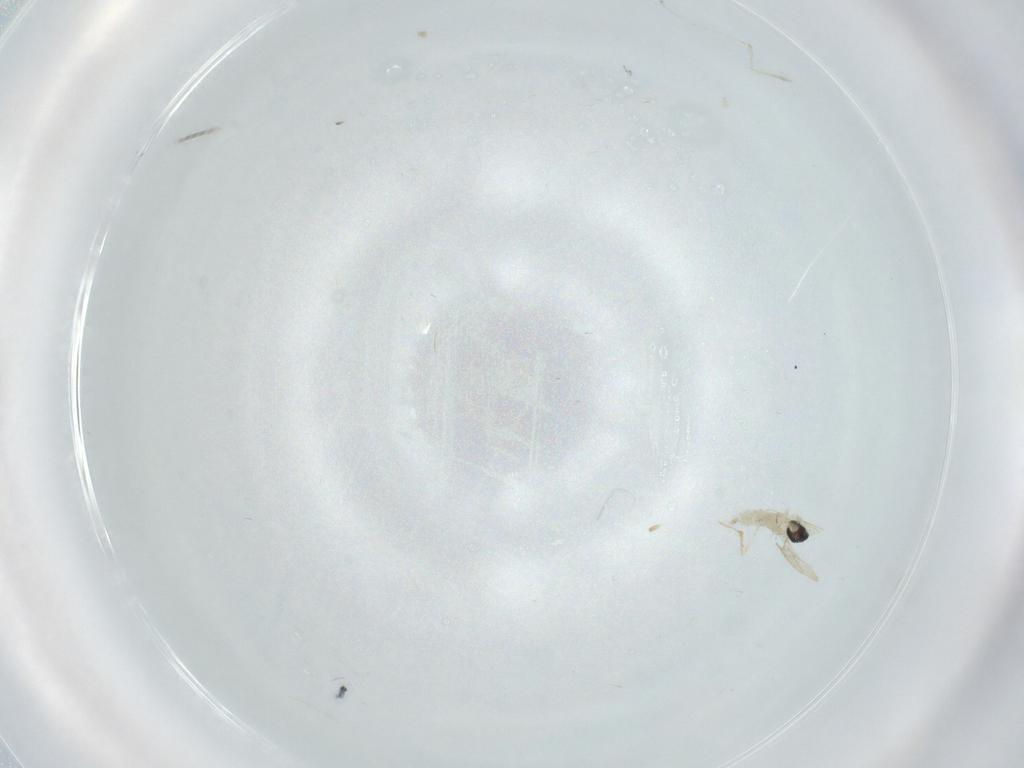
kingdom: Animalia
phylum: Arthropoda
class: Insecta
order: Diptera
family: Cecidomyiidae
